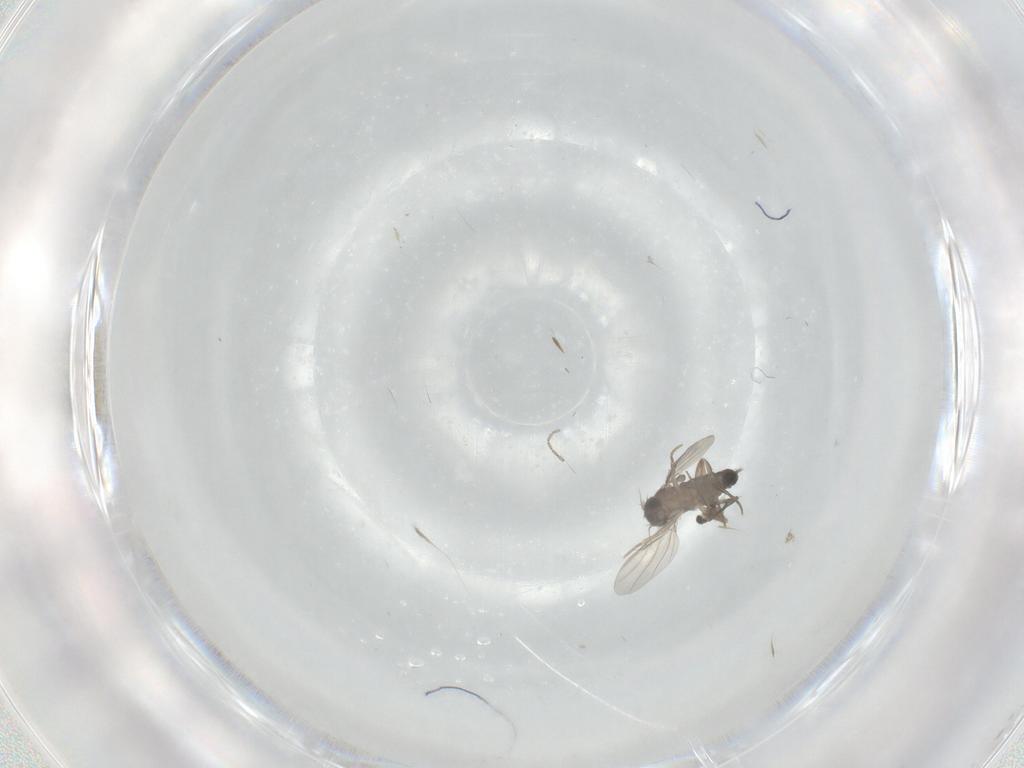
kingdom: Animalia
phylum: Arthropoda
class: Insecta
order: Diptera
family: Phoridae
